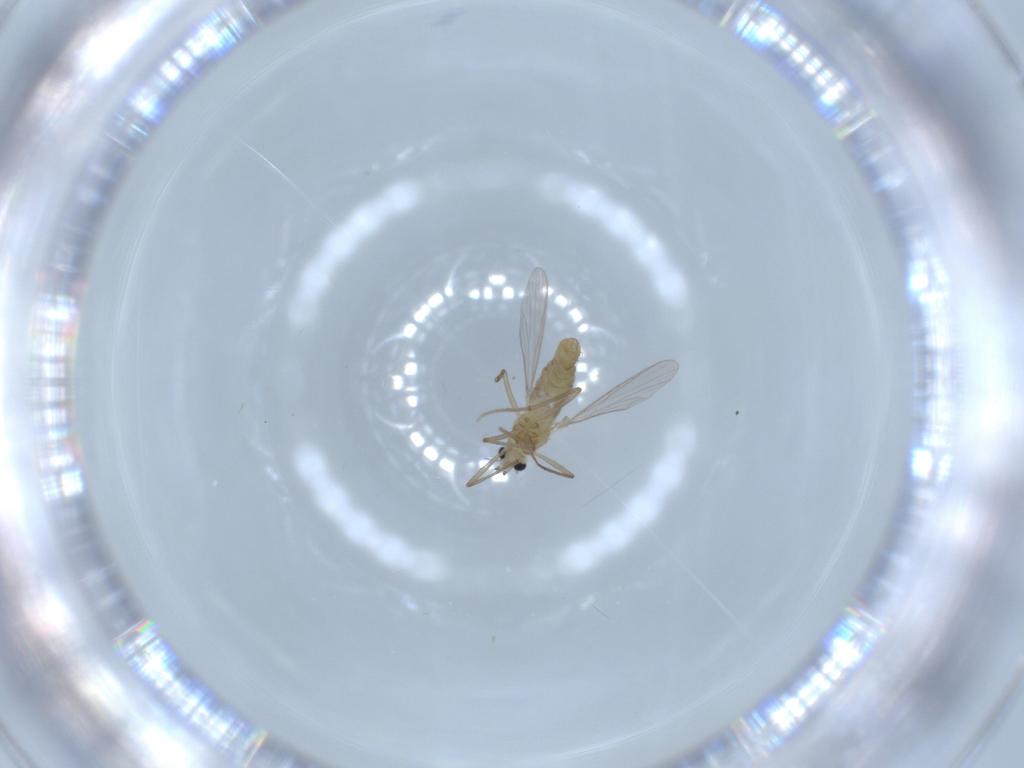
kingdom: Animalia
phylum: Arthropoda
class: Insecta
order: Diptera
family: Chironomidae
